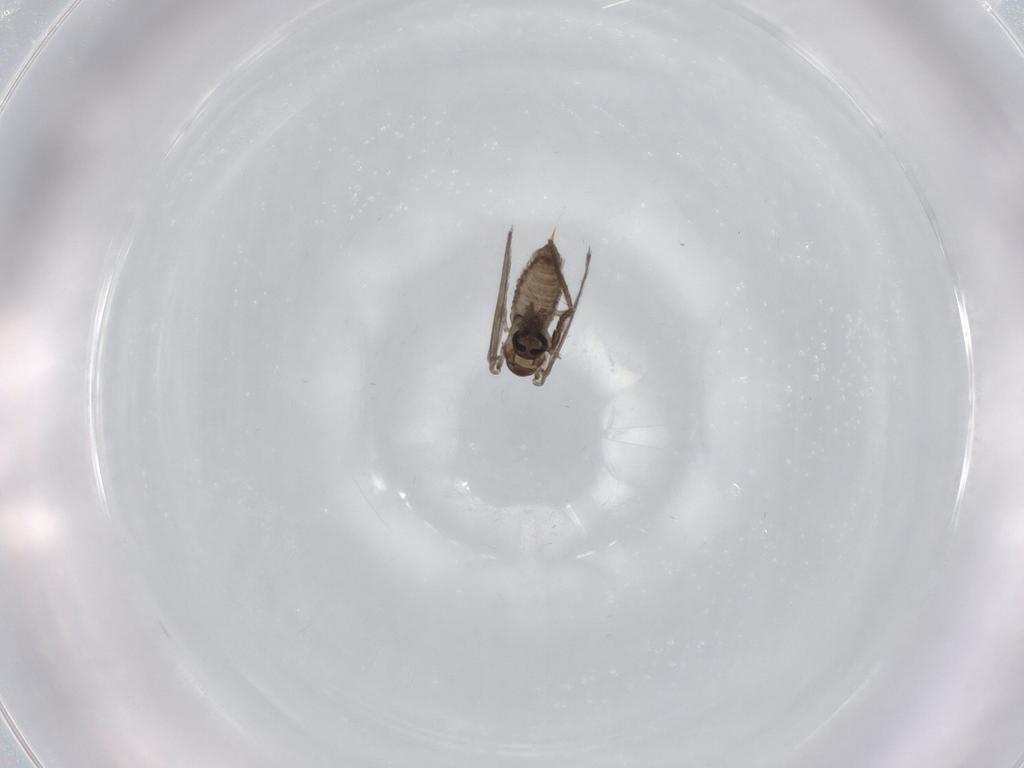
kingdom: Animalia
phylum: Arthropoda
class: Insecta
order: Diptera
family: Psychodidae
